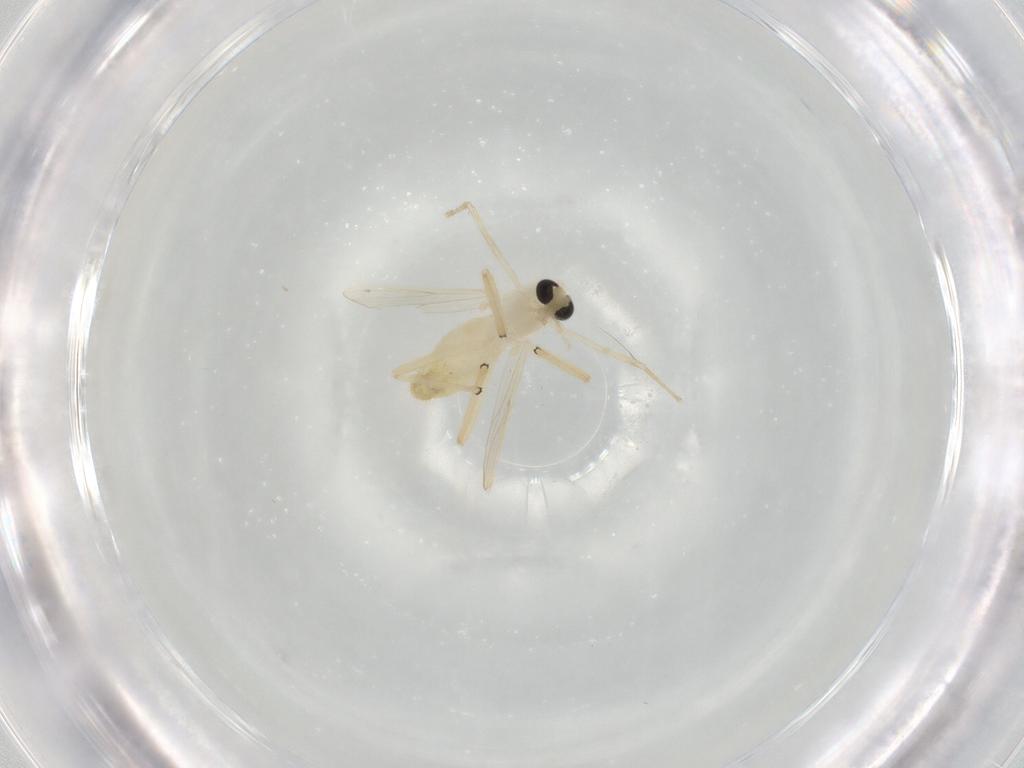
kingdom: Animalia
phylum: Arthropoda
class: Insecta
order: Diptera
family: Chironomidae
